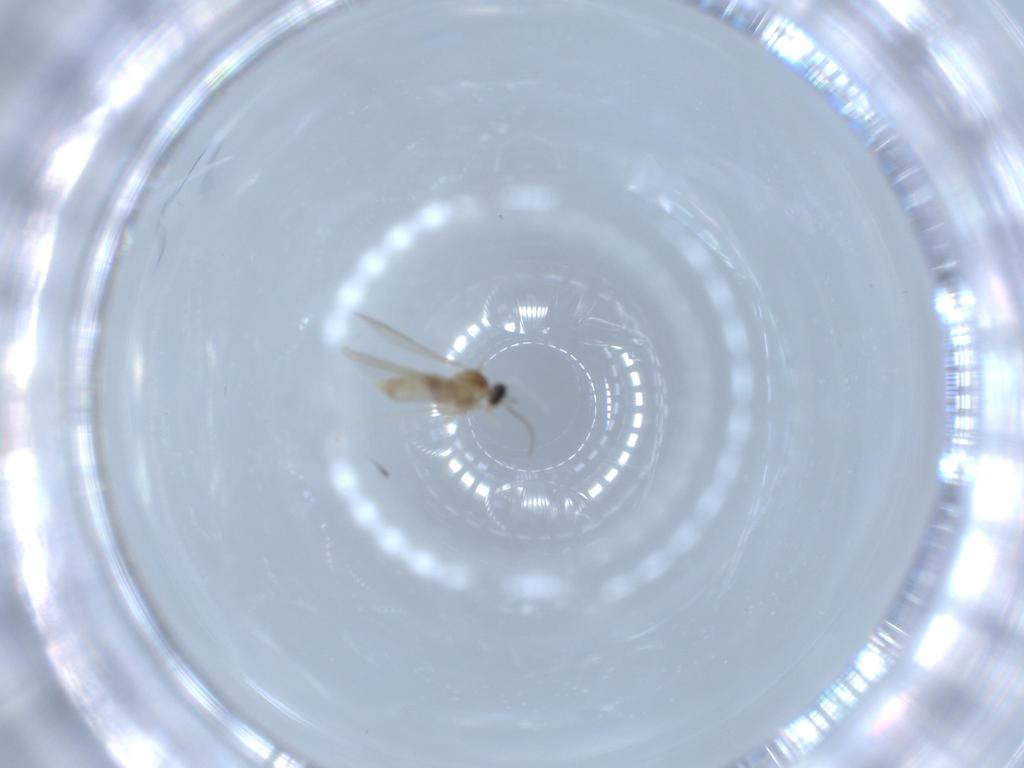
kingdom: Animalia
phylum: Arthropoda
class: Insecta
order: Diptera
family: Cecidomyiidae
